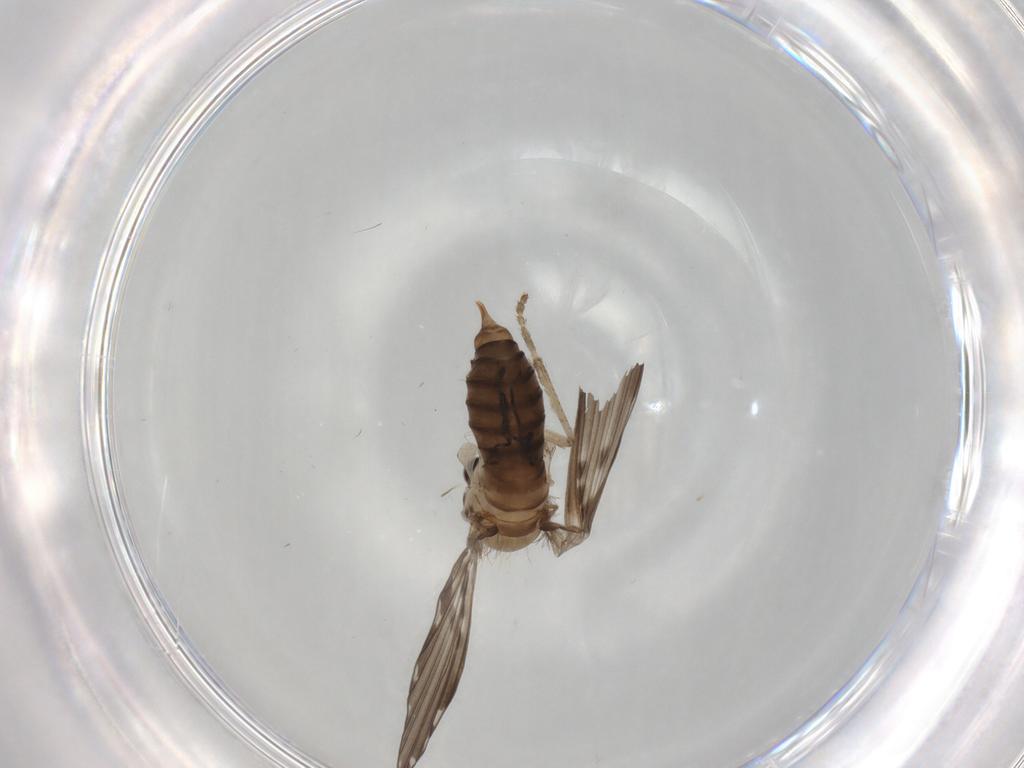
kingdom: Animalia
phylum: Arthropoda
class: Insecta
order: Diptera
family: Psychodidae
